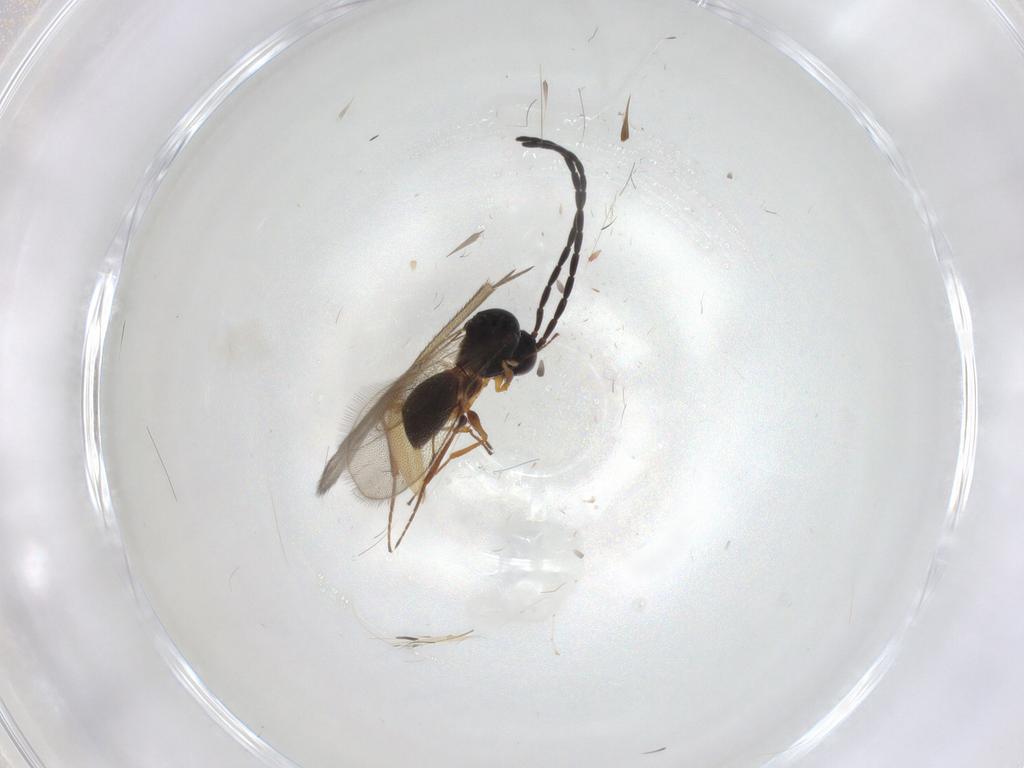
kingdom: Animalia
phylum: Arthropoda
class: Insecta
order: Hymenoptera
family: Figitidae
